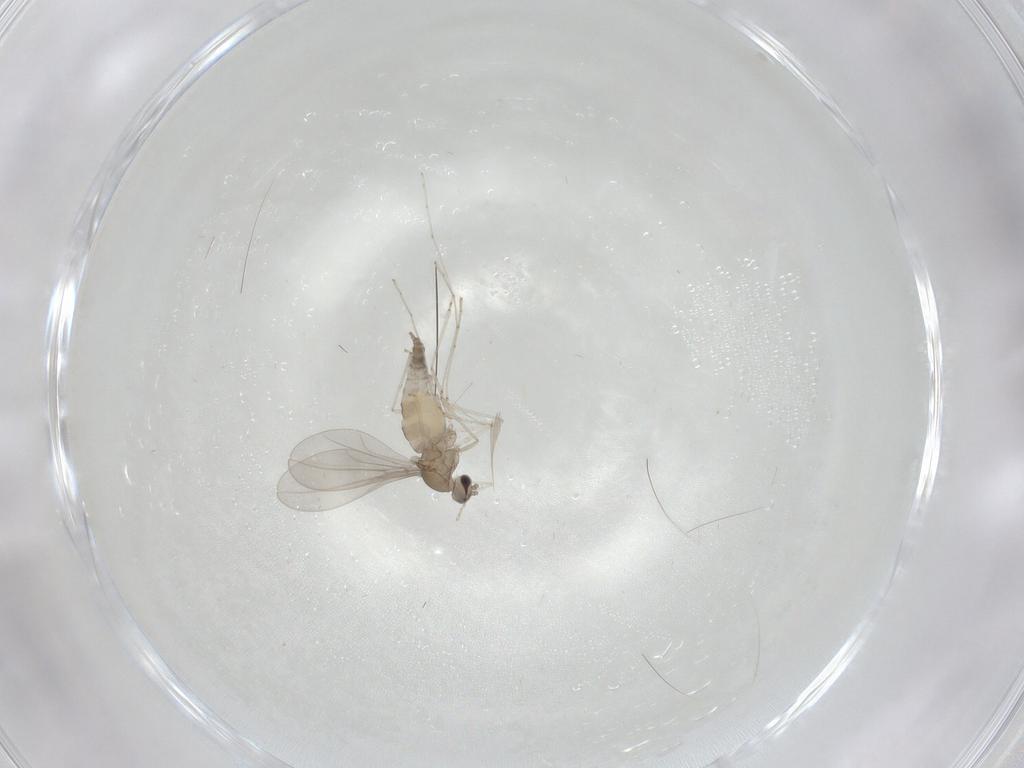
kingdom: Animalia
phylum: Arthropoda
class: Insecta
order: Diptera
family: Cecidomyiidae
